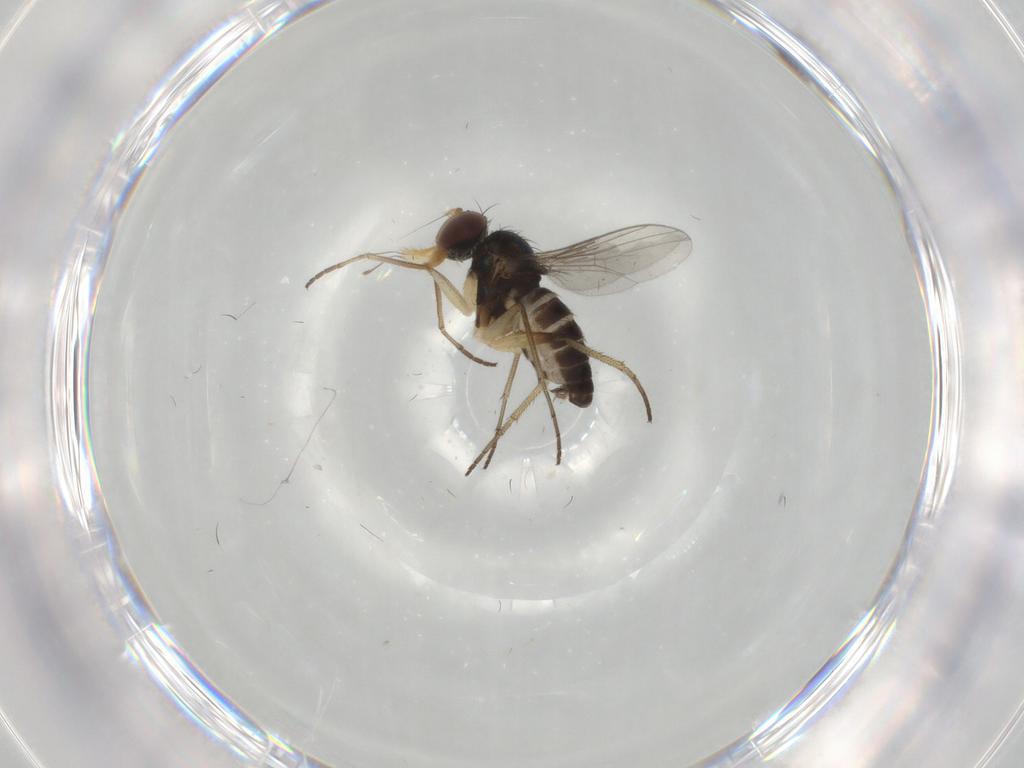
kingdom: Animalia
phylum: Arthropoda
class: Insecta
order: Diptera
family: Dolichopodidae
